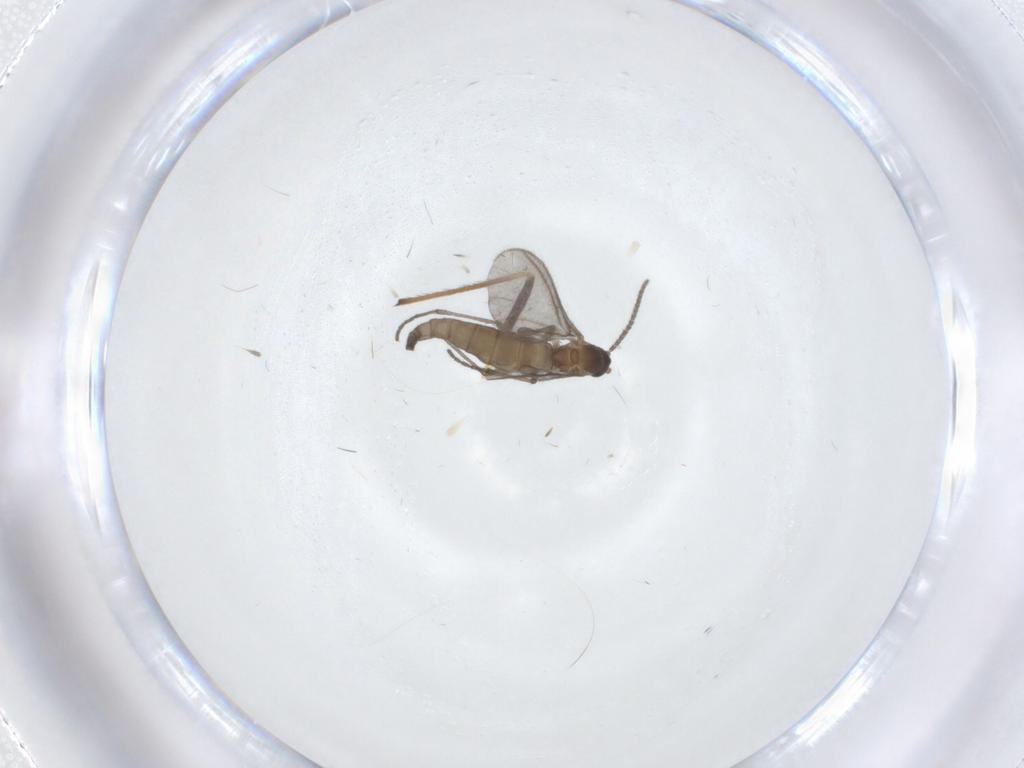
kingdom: Animalia
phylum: Arthropoda
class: Insecta
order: Diptera
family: Sciaridae
